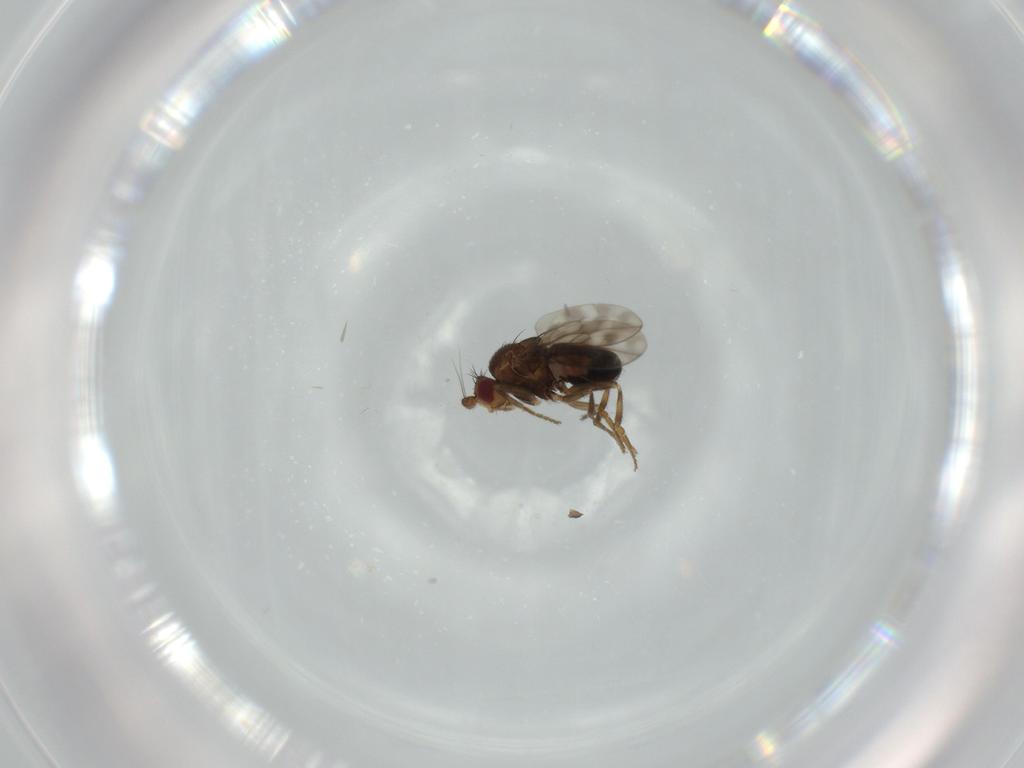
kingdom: Animalia
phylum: Arthropoda
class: Insecta
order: Diptera
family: Sphaeroceridae
